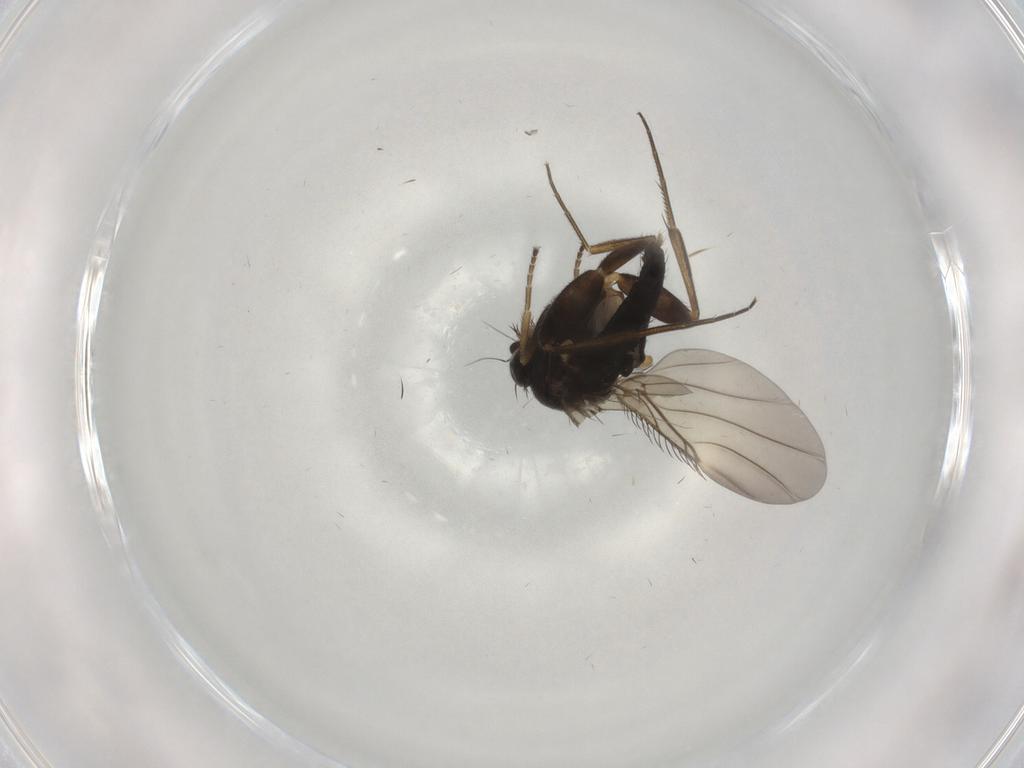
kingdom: Animalia
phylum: Arthropoda
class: Insecta
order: Diptera
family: Phoridae
